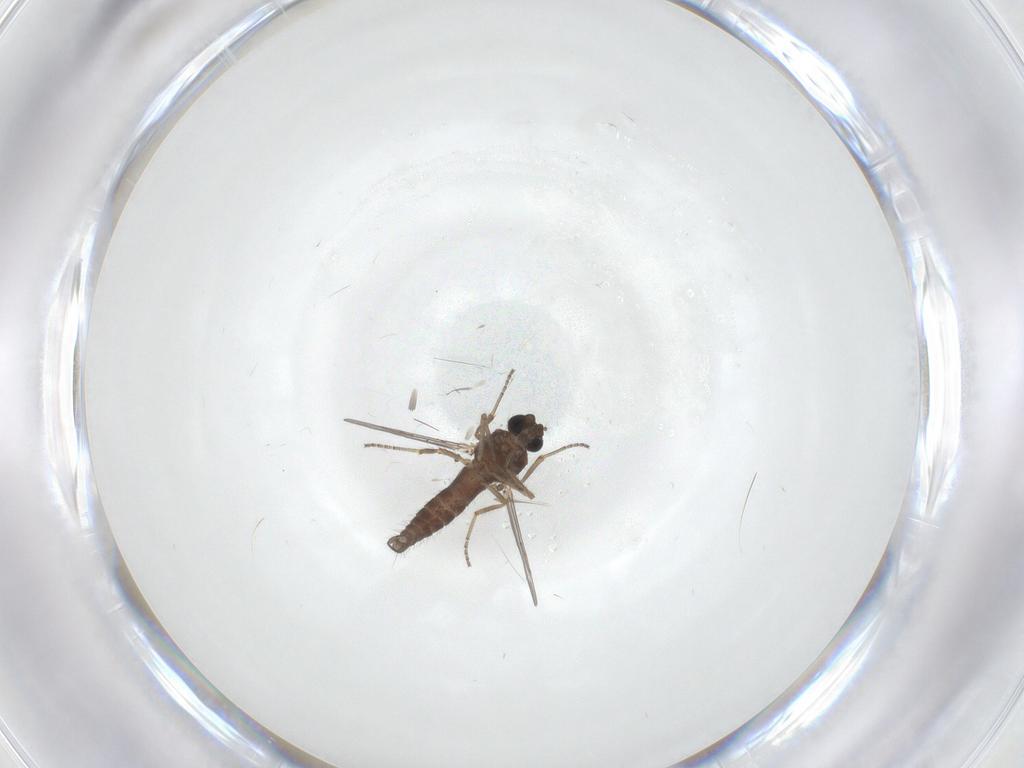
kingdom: Animalia
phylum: Arthropoda
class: Insecta
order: Diptera
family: Ceratopogonidae
